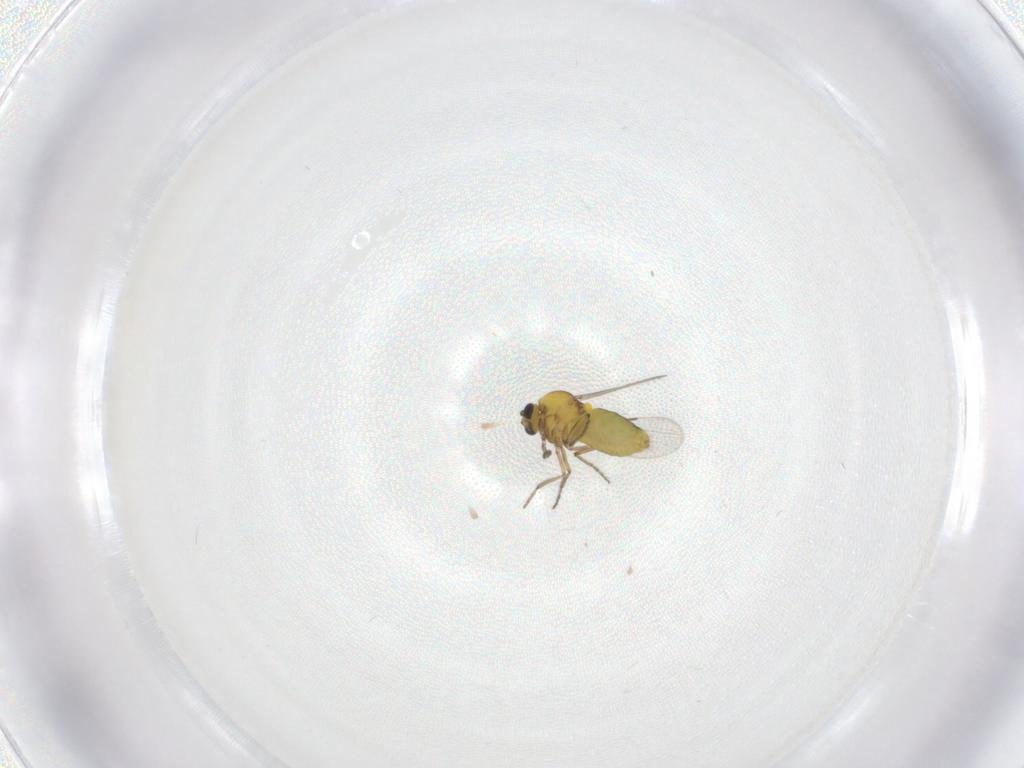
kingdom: Animalia
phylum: Arthropoda
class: Insecta
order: Diptera
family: Ceratopogonidae
